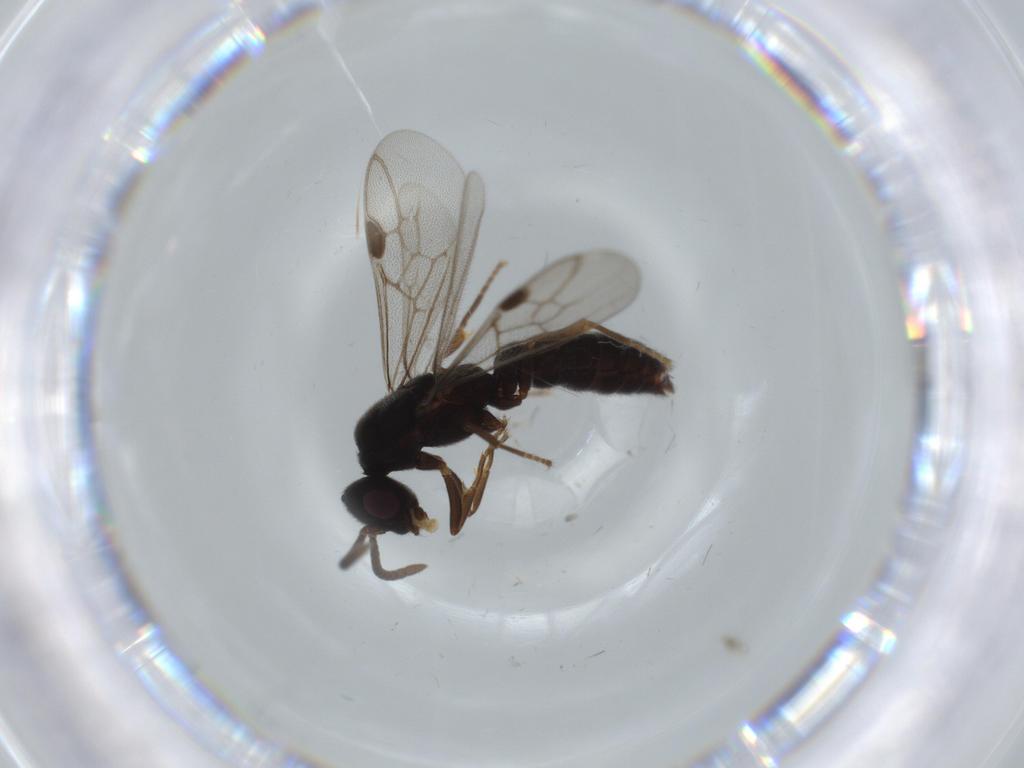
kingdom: Animalia
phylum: Arthropoda
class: Insecta
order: Hymenoptera
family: Formicidae
